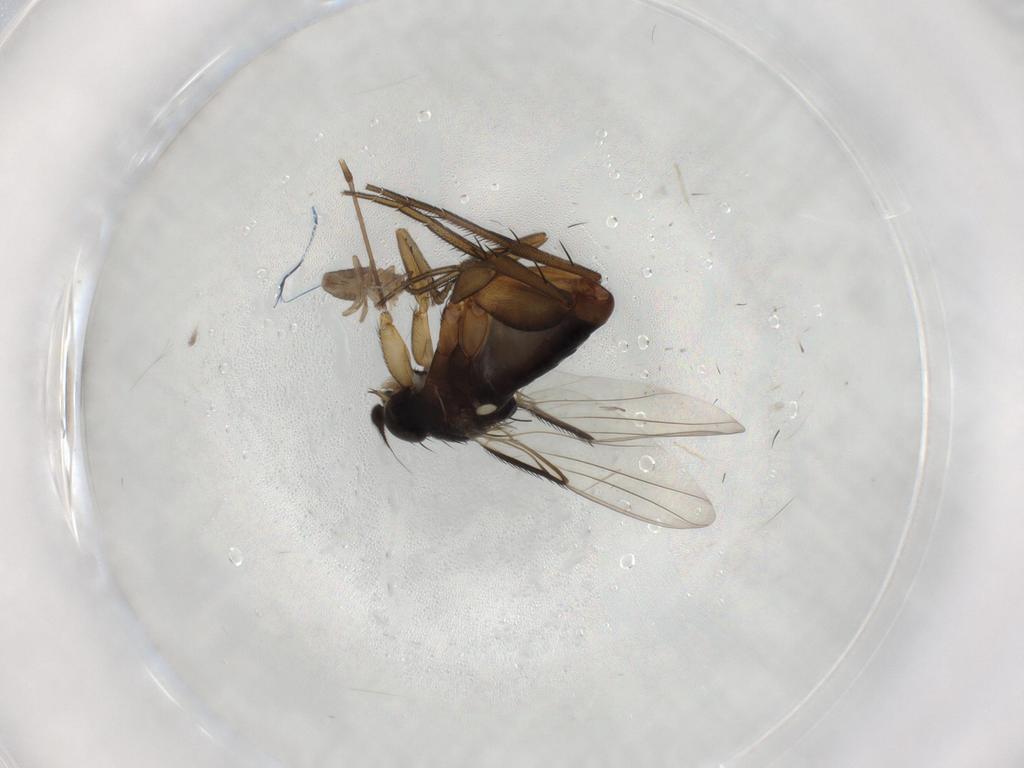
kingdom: Animalia
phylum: Arthropoda
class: Insecta
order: Diptera
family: Phoridae
